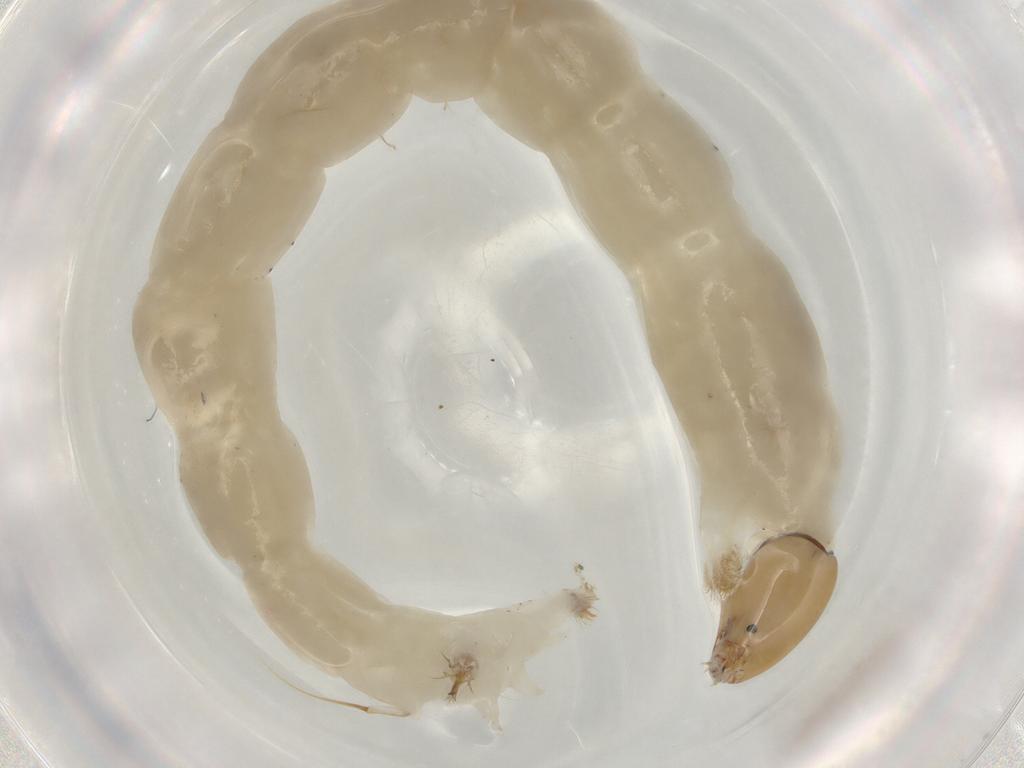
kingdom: Animalia
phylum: Arthropoda
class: Insecta
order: Diptera
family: Chironomidae
